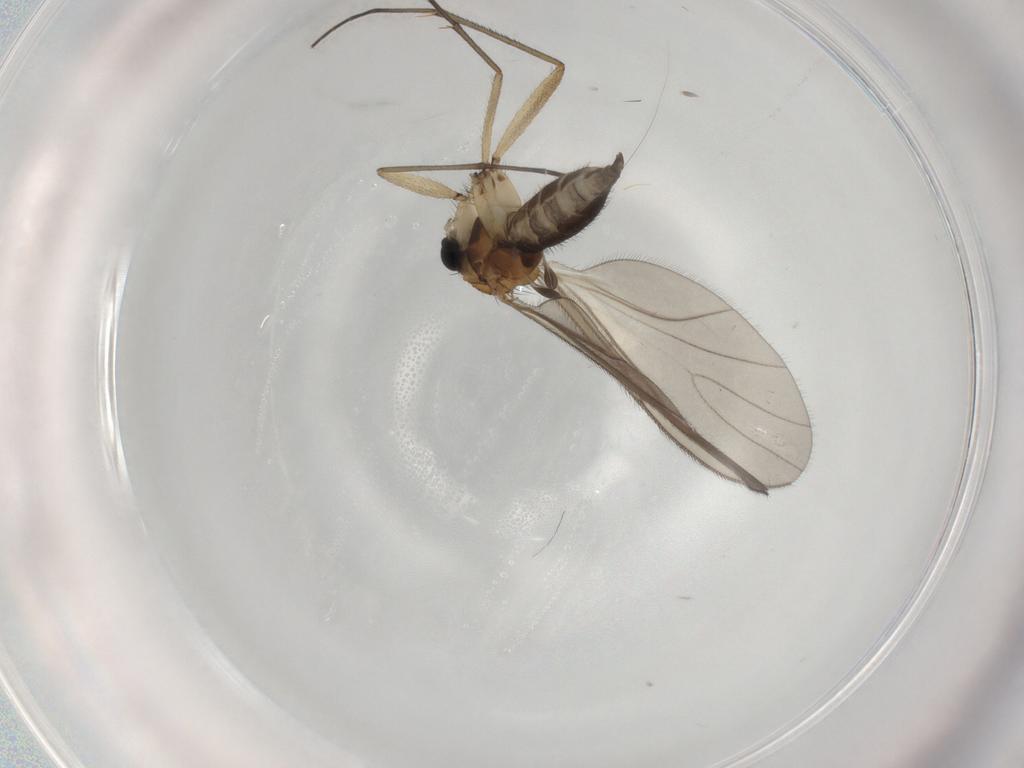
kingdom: Animalia
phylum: Arthropoda
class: Insecta
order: Diptera
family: Sciaridae
